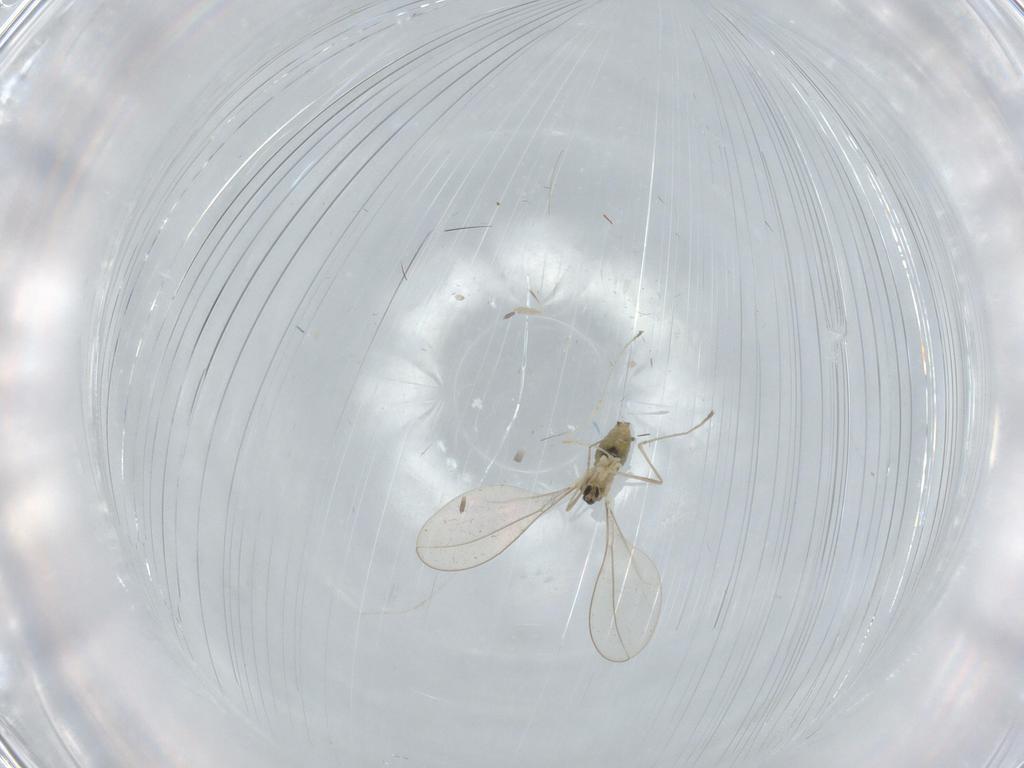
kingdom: Animalia
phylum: Arthropoda
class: Insecta
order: Diptera
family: Cecidomyiidae
